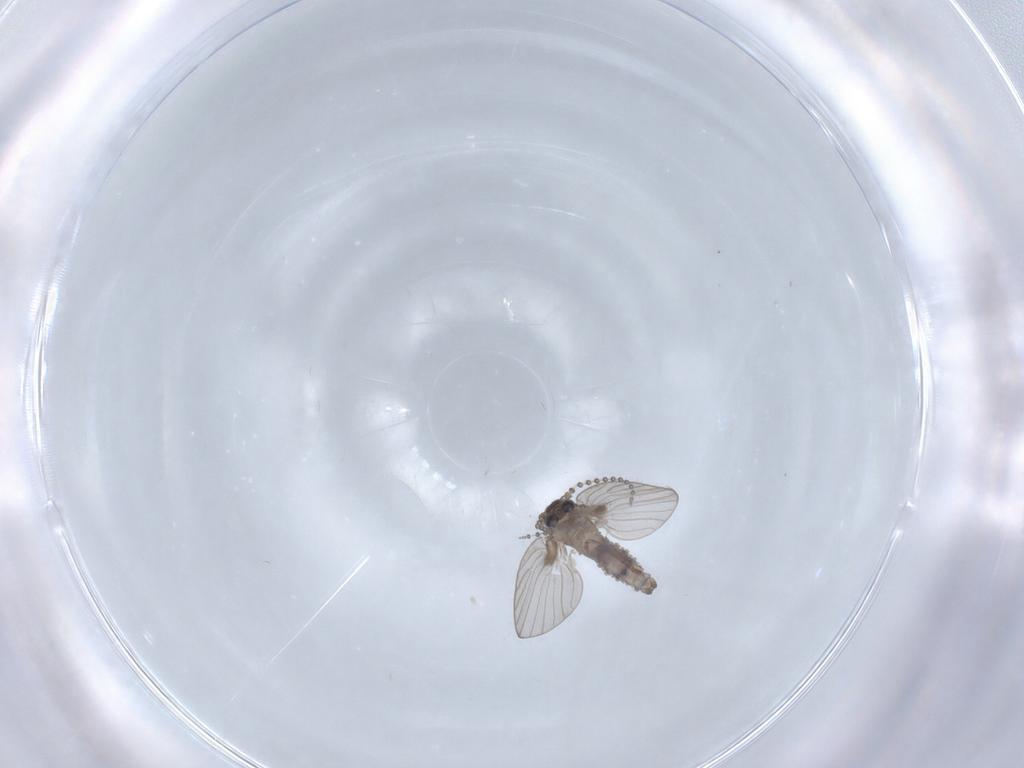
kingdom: Animalia
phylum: Arthropoda
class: Insecta
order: Diptera
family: Psychodidae
